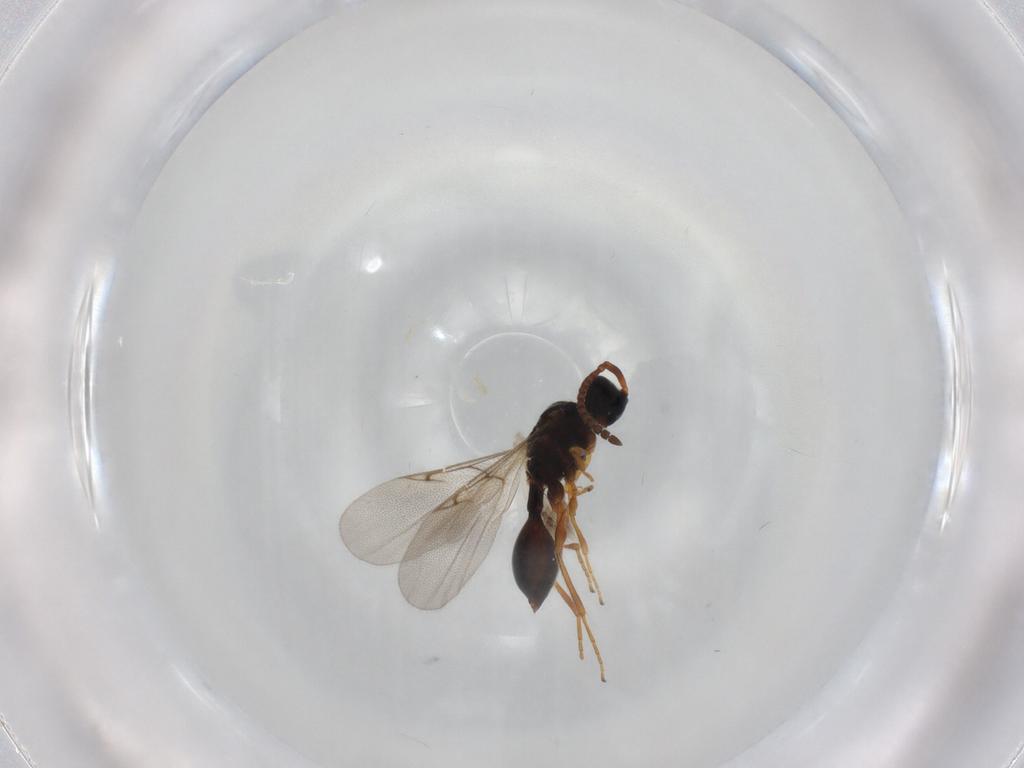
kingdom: Animalia
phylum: Arthropoda
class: Insecta
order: Hymenoptera
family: Diapriidae
